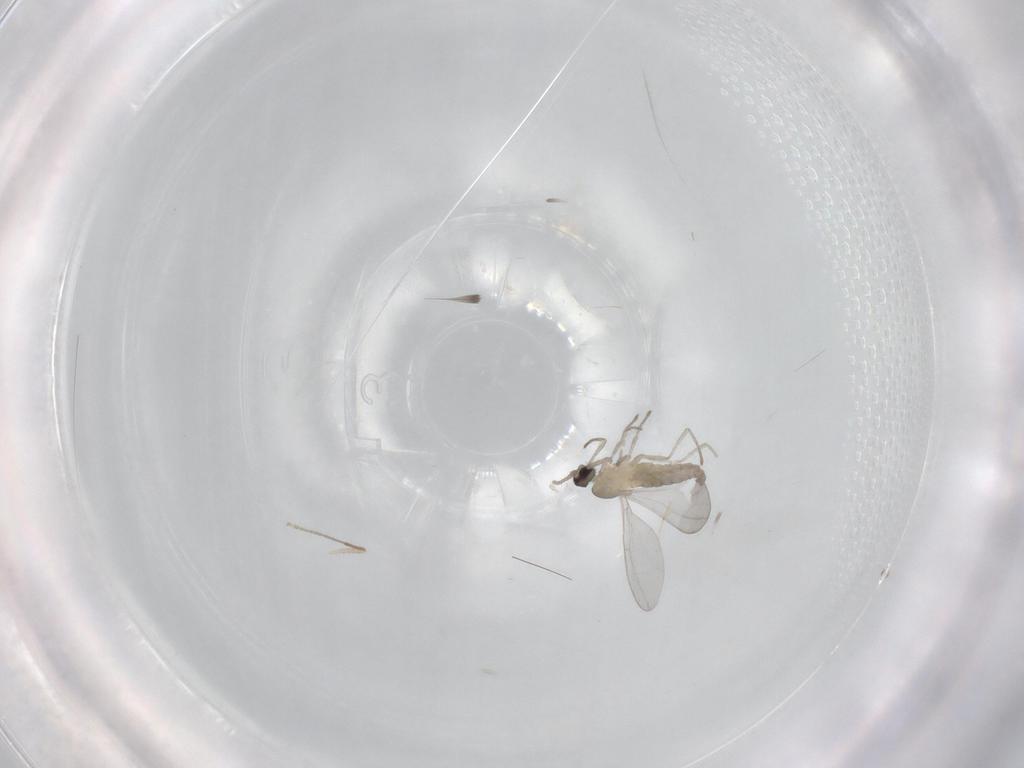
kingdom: Animalia
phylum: Arthropoda
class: Insecta
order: Diptera
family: Cecidomyiidae
